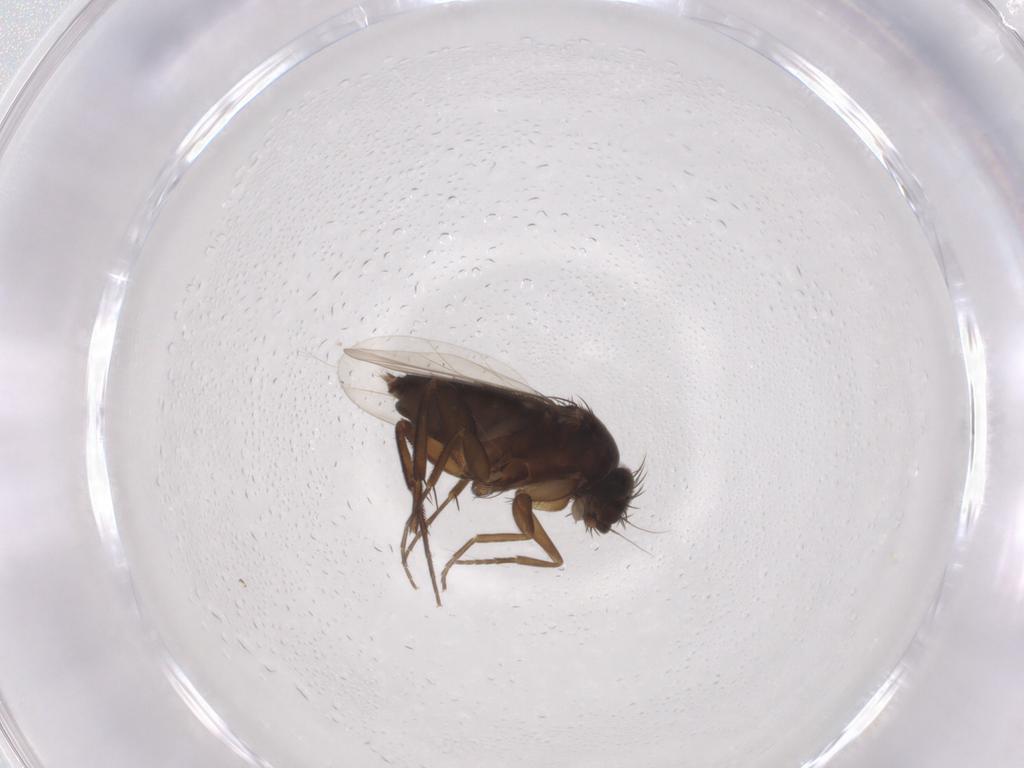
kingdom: Animalia
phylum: Arthropoda
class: Insecta
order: Diptera
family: Phoridae
